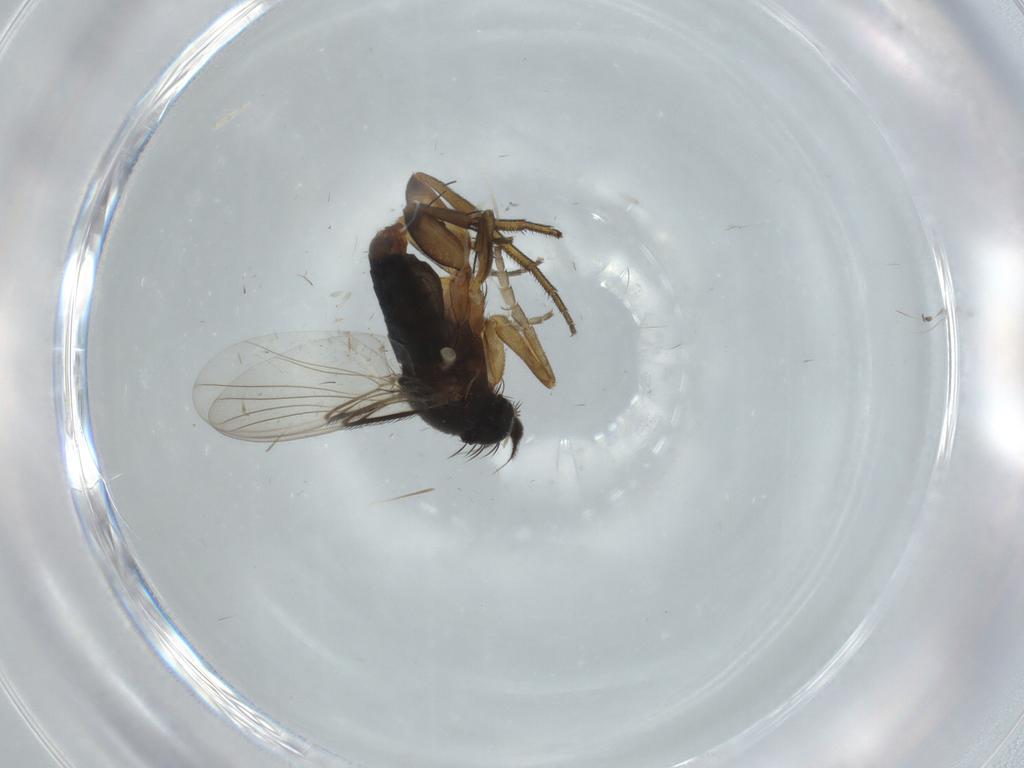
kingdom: Animalia
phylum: Arthropoda
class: Insecta
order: Diptera
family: Phoridae
